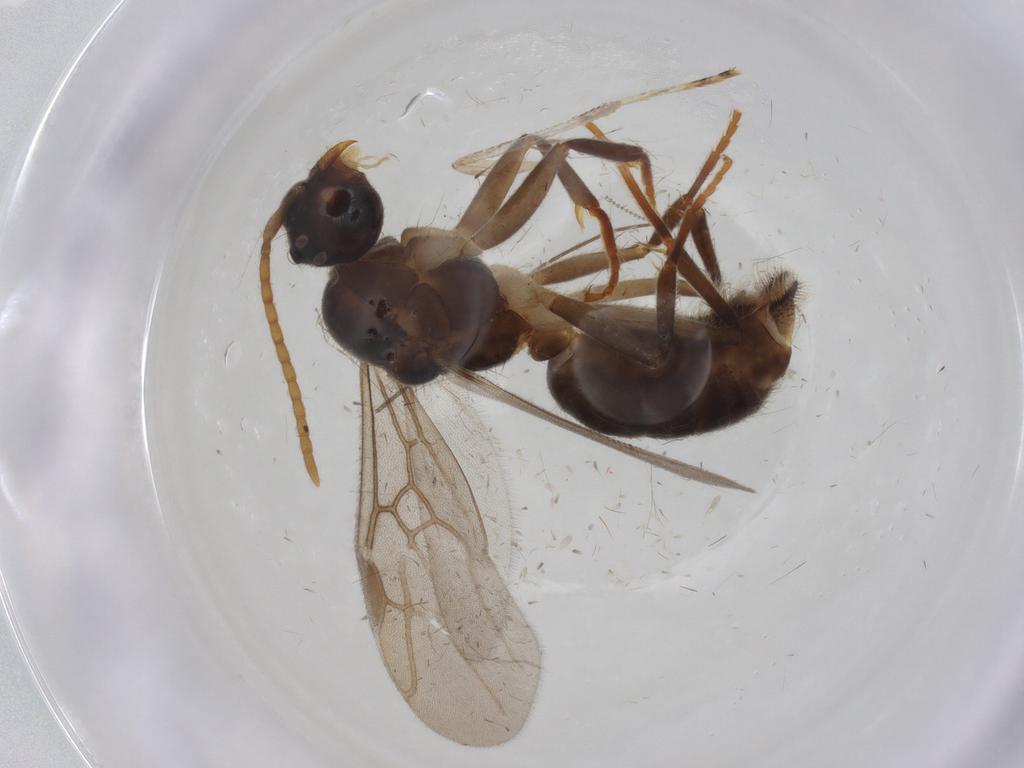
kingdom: Animalia
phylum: Arthropoda
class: Insecta
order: Hymenoptera
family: Formicidae
